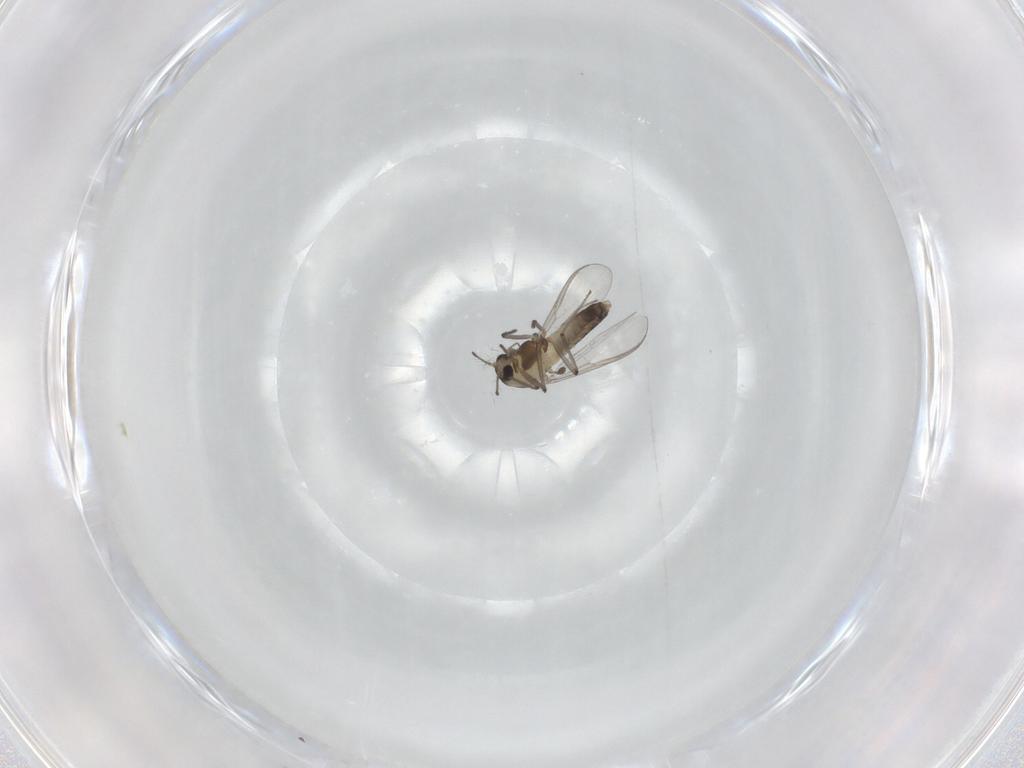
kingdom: Animalia
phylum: Arthropoda
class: Insecta
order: Diptera
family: Chironomidae
